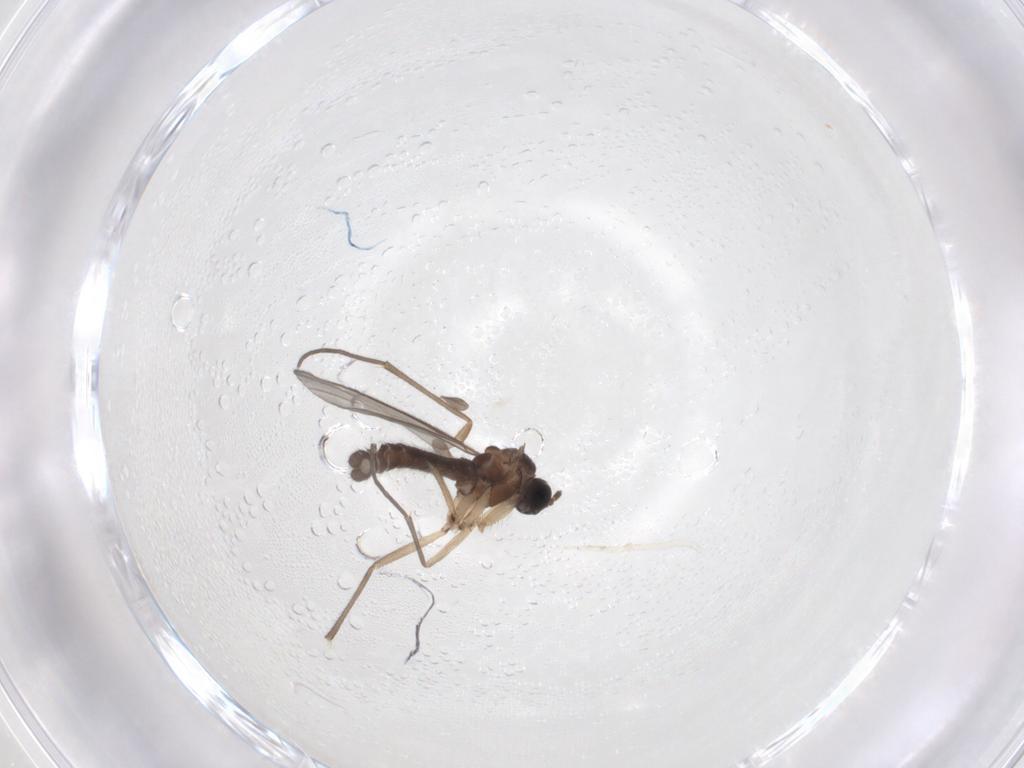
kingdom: Animalia
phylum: Arthropoda
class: Insecta
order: Diptera
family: Sciaridae
